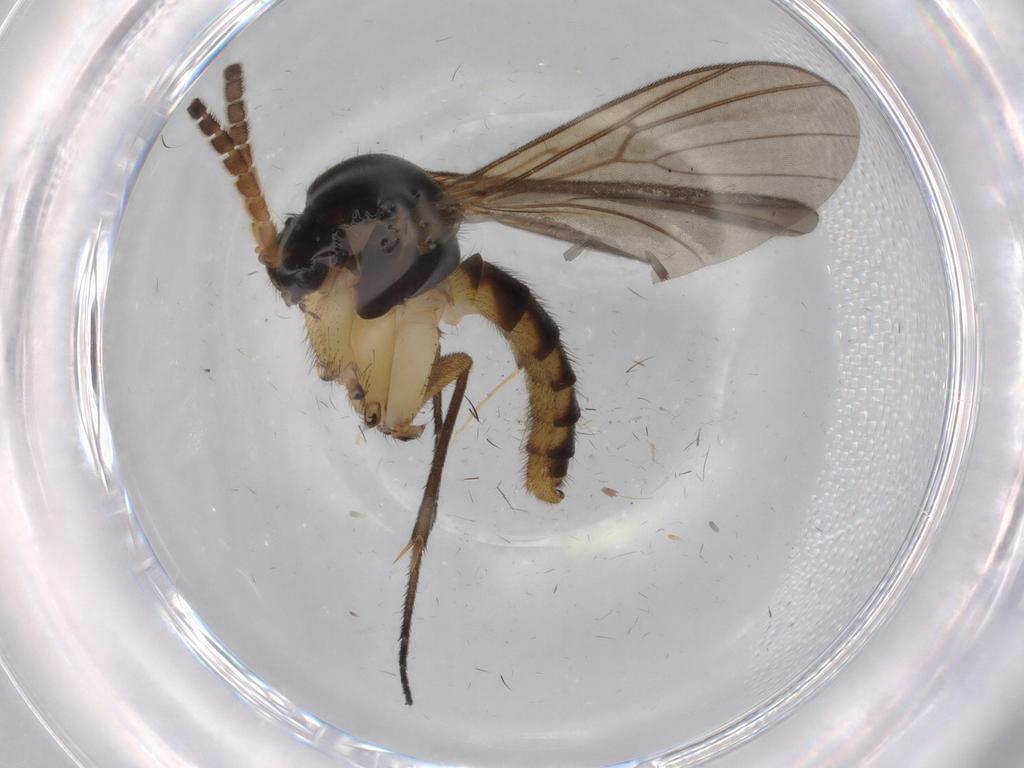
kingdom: Animalia
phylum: Arthropoda
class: Insecta
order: Diptera
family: Mycetophilidae
